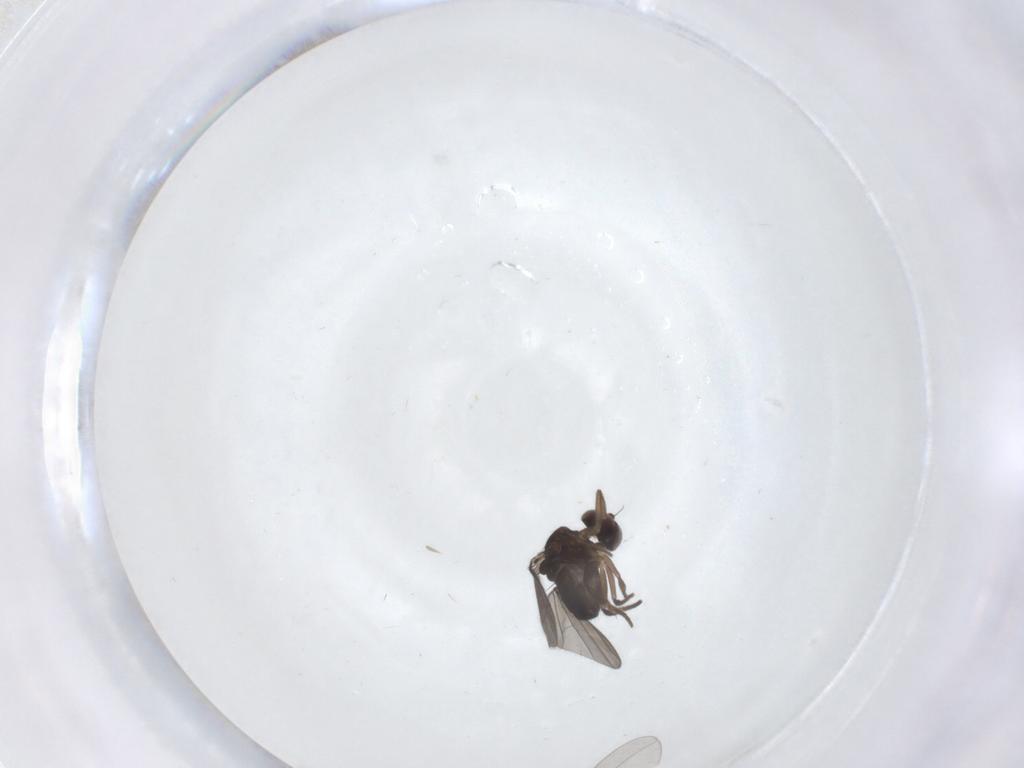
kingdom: Animalia
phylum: Arthropoda
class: Insecta
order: Diptera
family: Dolichopodidae
